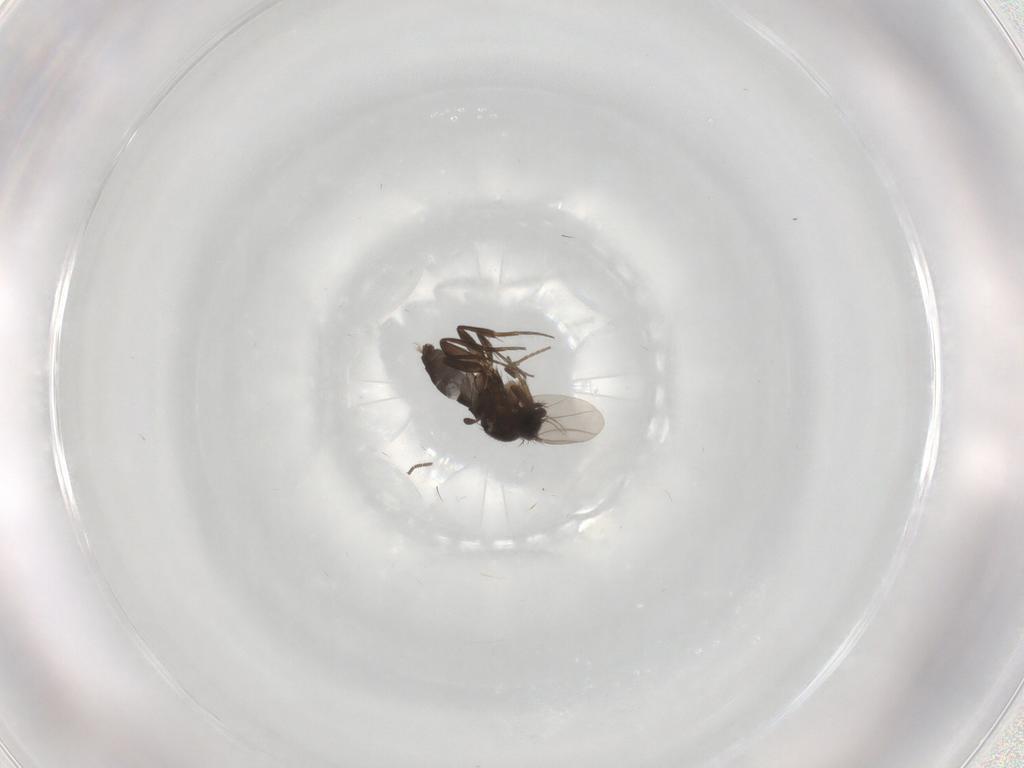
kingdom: Animalia
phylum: Arthropoda
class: Insecta
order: Diptera
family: Phoridae
